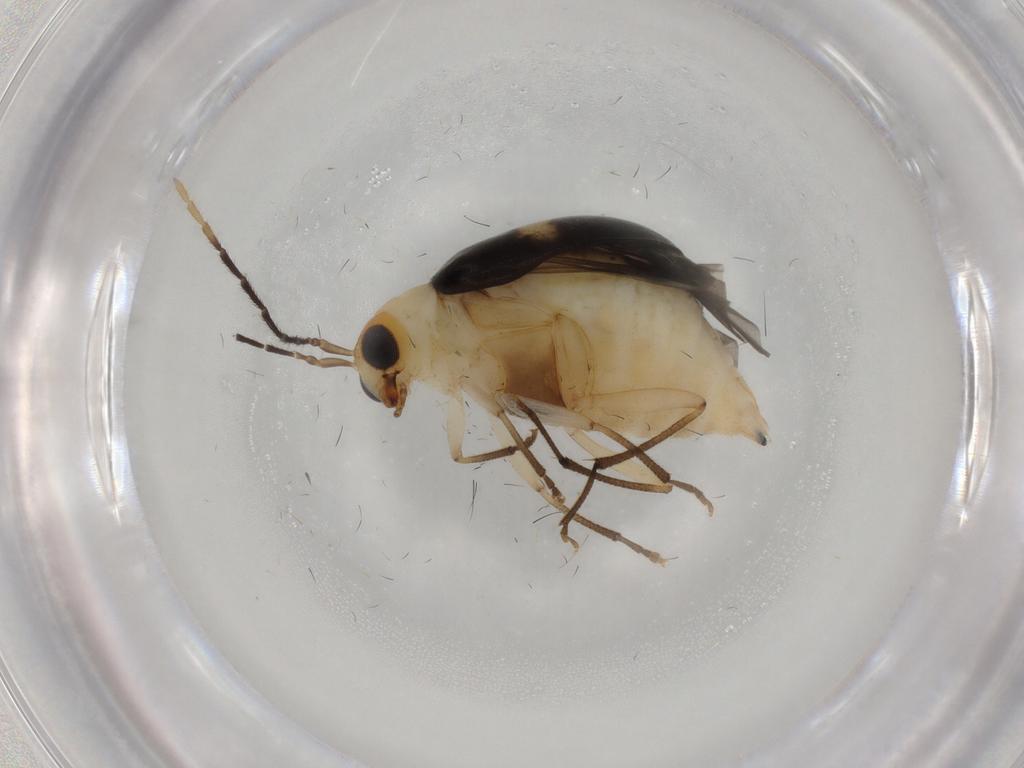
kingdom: Animalia
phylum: Arthropoda
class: Insecta
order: Coleoptera
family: Chrysomelidae
